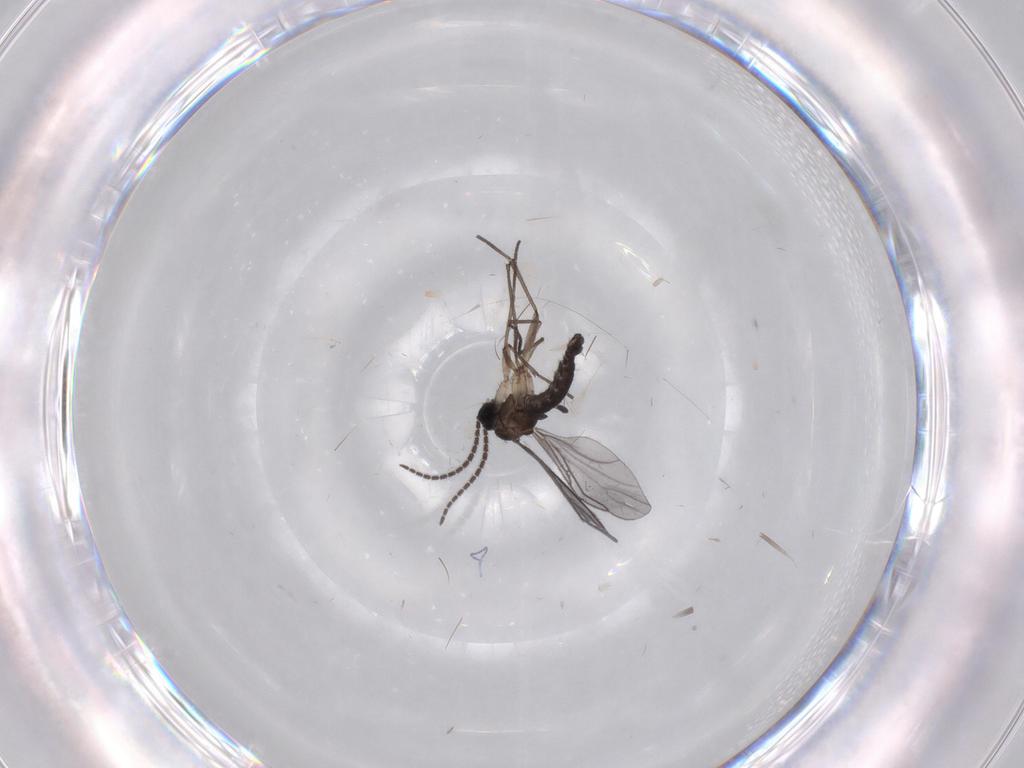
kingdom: Animalia
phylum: Arthropoda
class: Insecta
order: Diptera
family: Sciaridae
